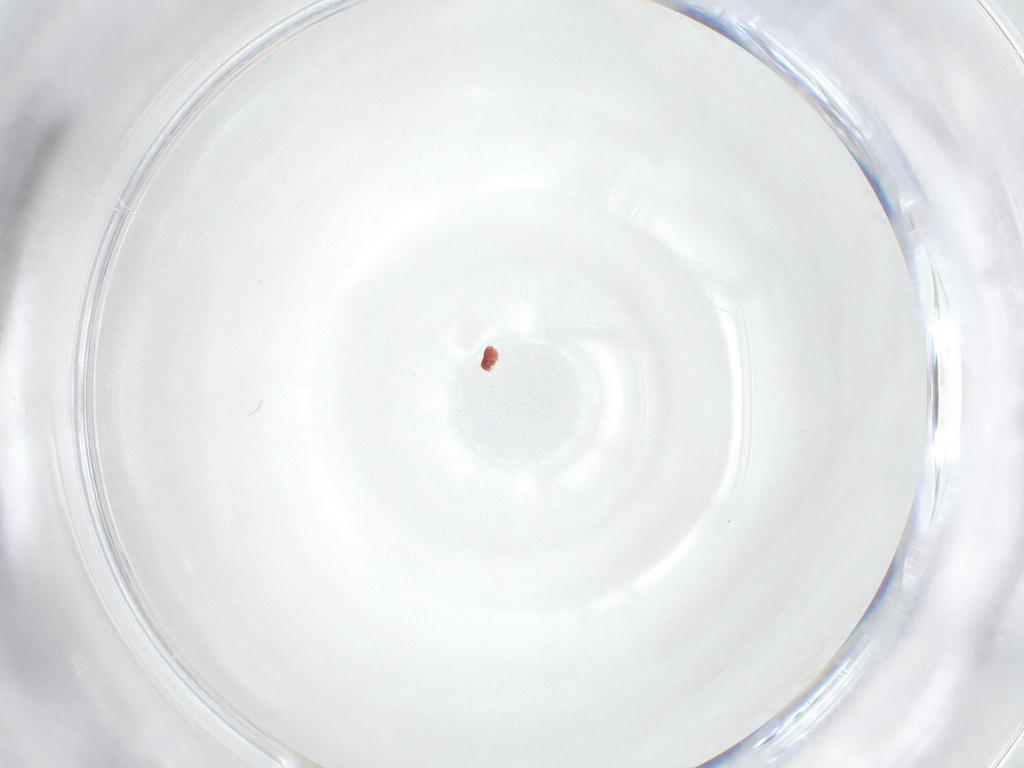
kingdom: Animalia
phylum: Arthropoda
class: Insecta
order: Diptera
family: Sciaridae
